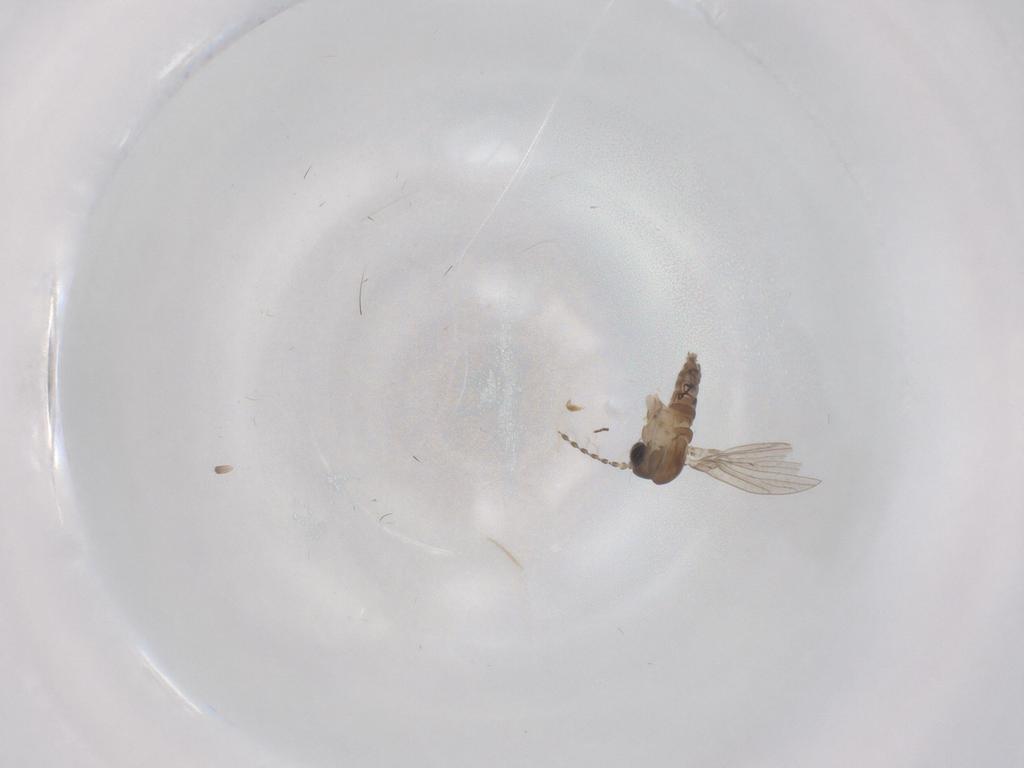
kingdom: Animalia
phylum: Arthropoda
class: Insecta
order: Diptera
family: Psychodidae
